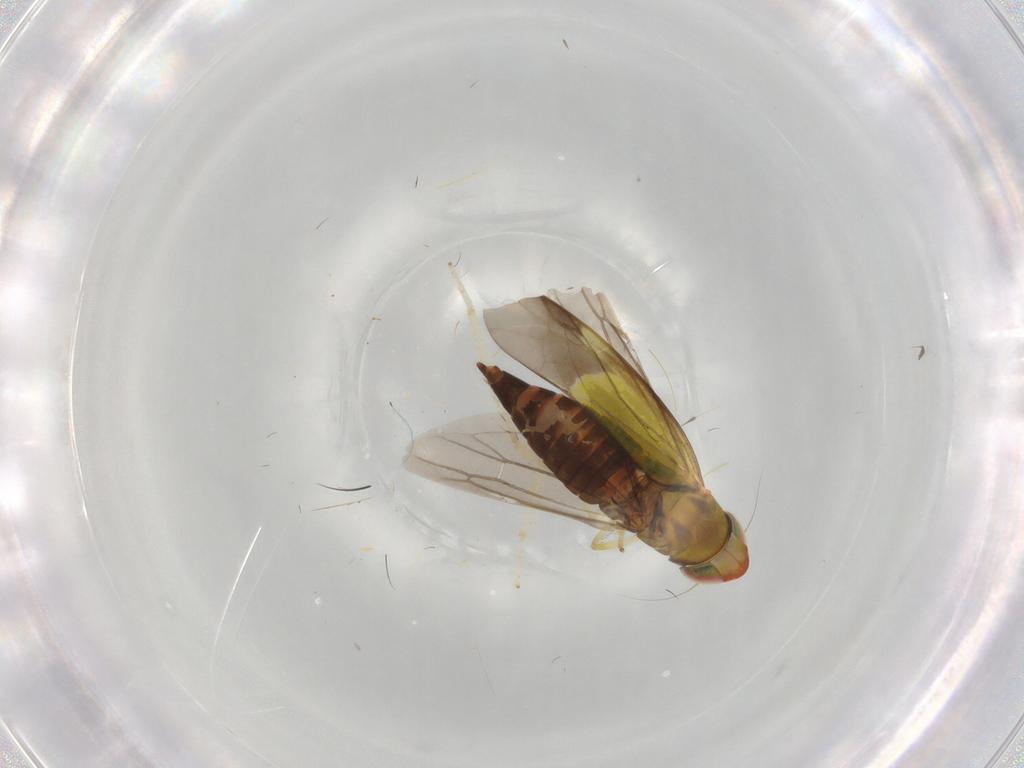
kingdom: Animalia
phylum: Arthropoda
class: Insecta
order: Hemiptera
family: Cicadellidae
